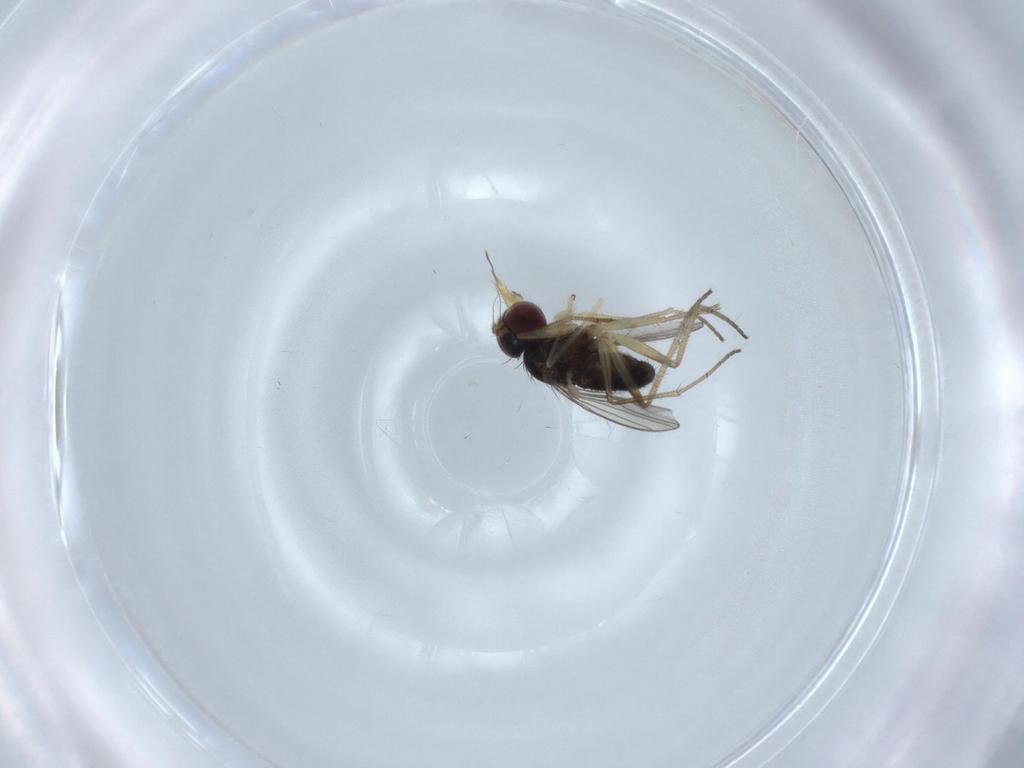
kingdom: Animalia
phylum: Arthropoda
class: Insecta
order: Diptera
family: Dolichopodidae
